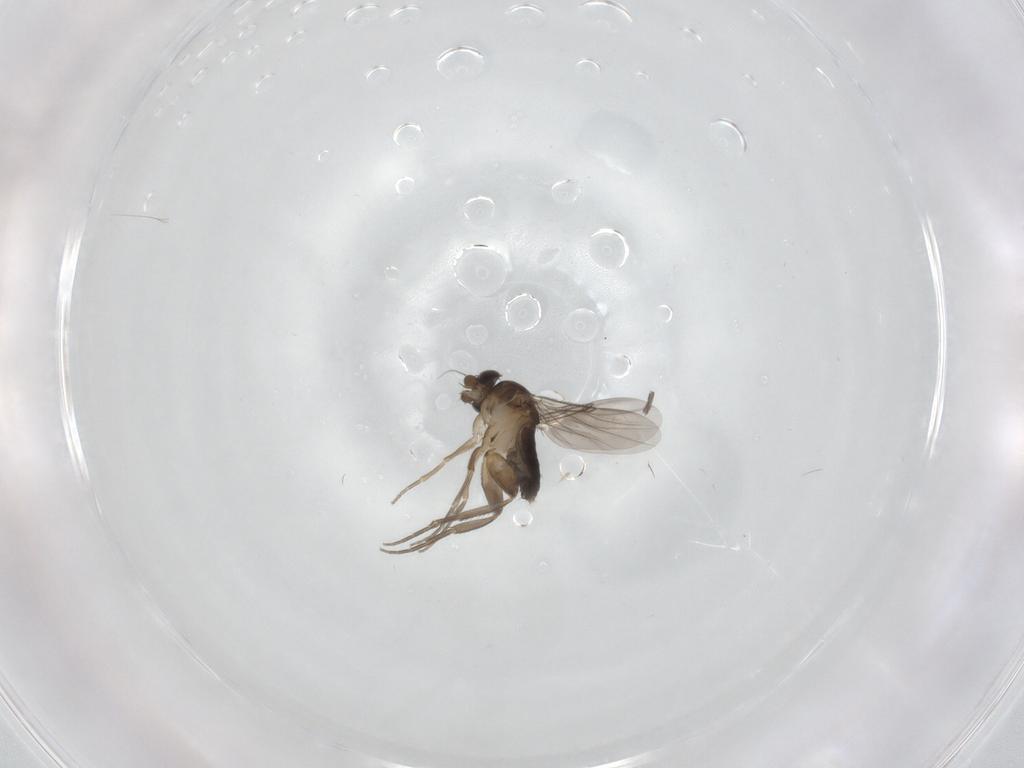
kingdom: Animalia
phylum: Arthropoda
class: Insecta
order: Diptera
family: Phoridae
